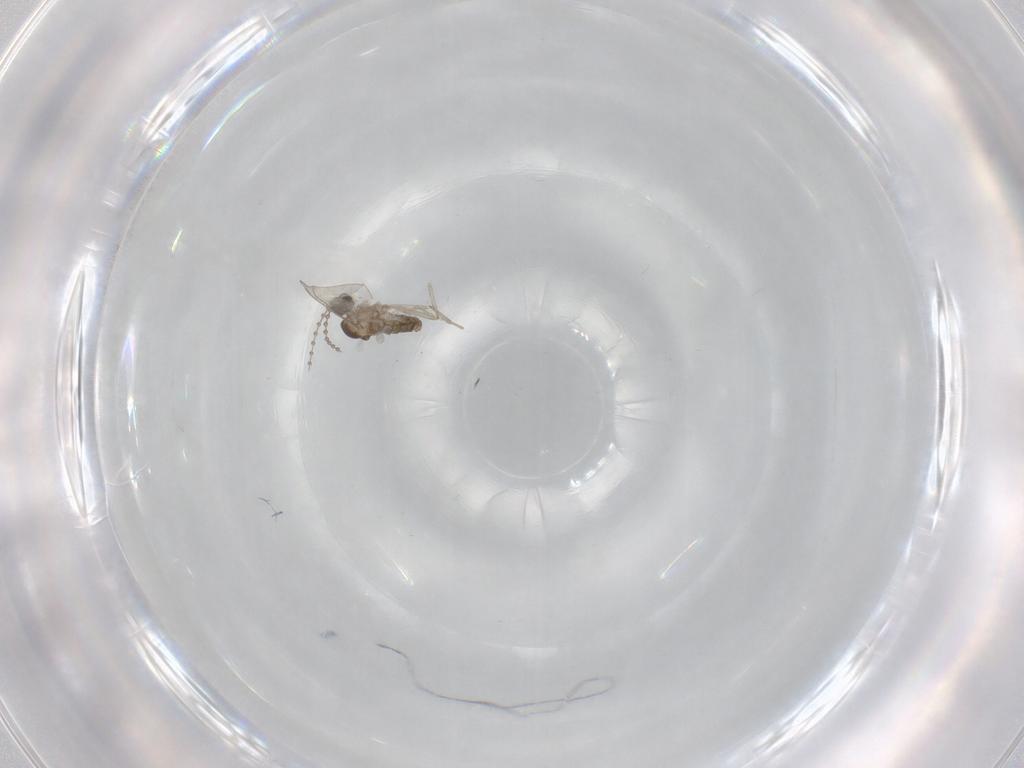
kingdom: Animalia
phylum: Arthropoda
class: Insecta
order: Diptera
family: Cecidomyiidae
